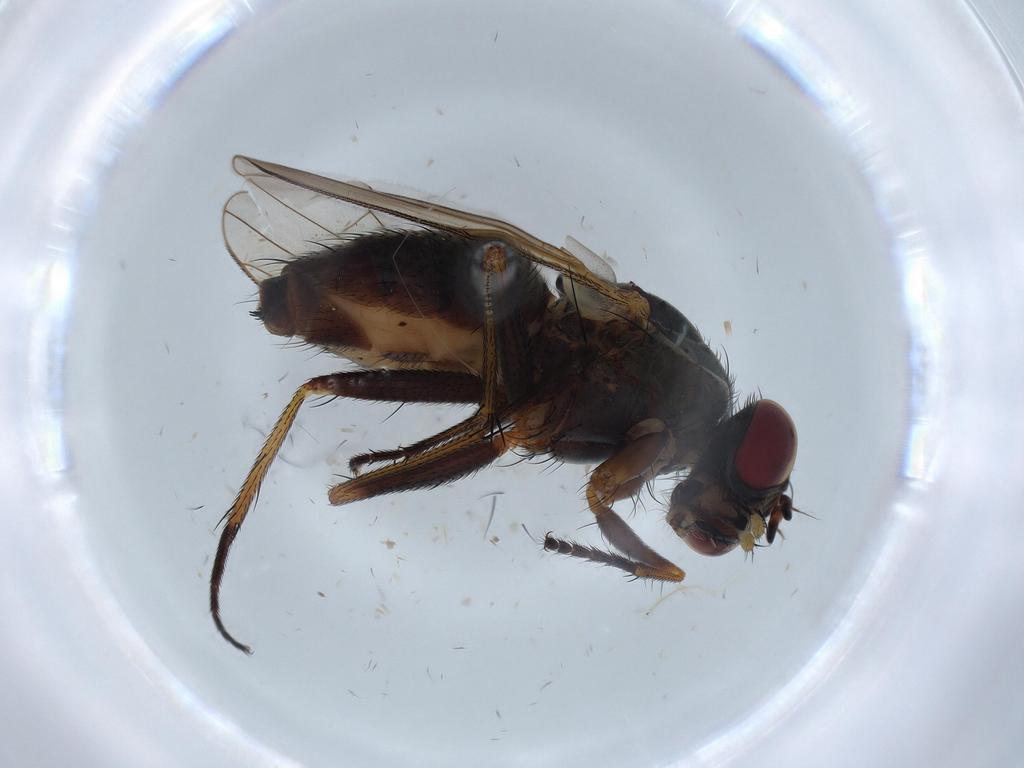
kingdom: Animalia
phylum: Arthropoda
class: Insecta
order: Diptera
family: Muscidae
